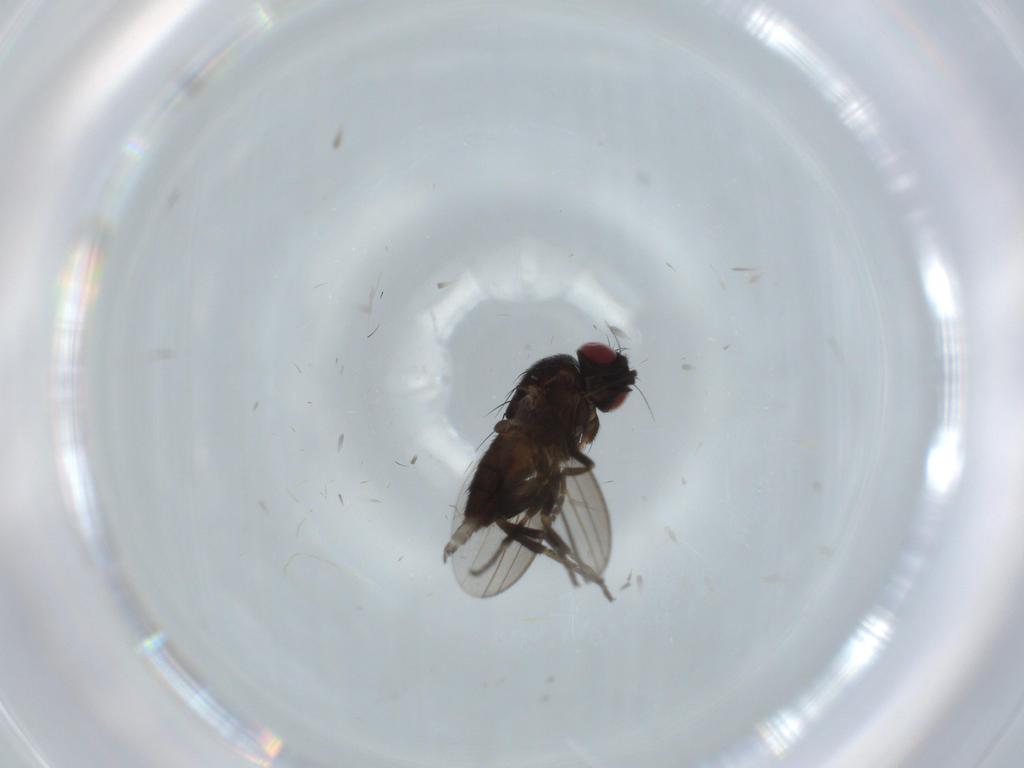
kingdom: Animalia
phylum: Arthropoda
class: Insecta
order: Diptera
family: Milichiidae
